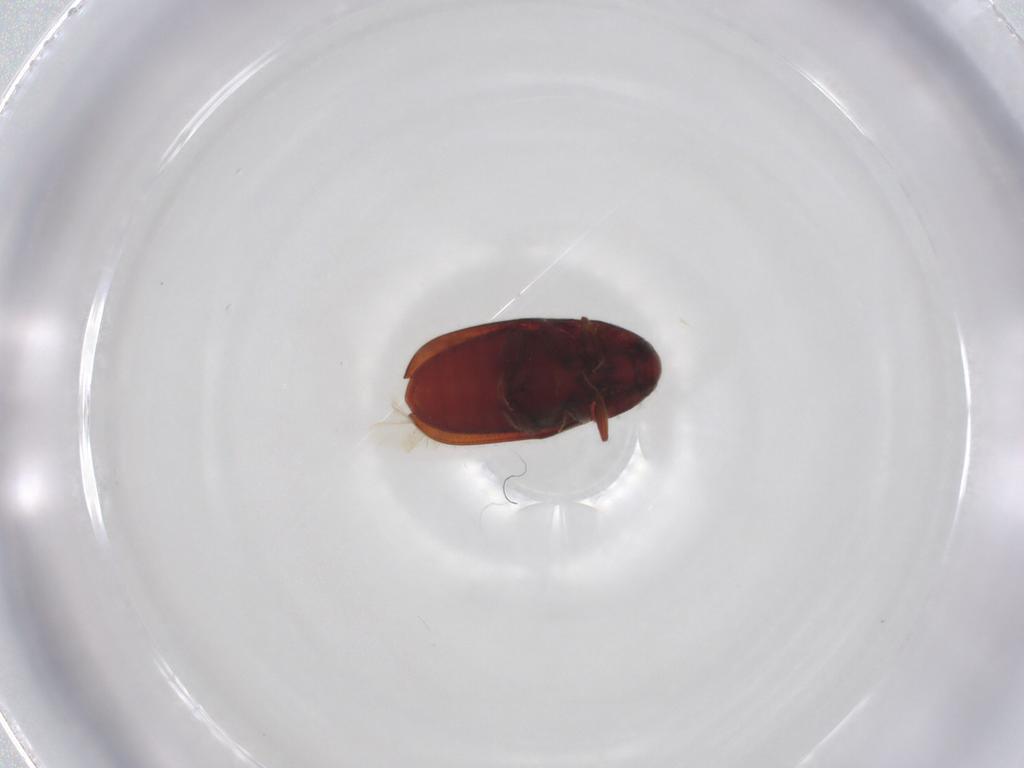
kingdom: Animalia
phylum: Arthropoda
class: Insecta
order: Coleoptera
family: Throscidae
